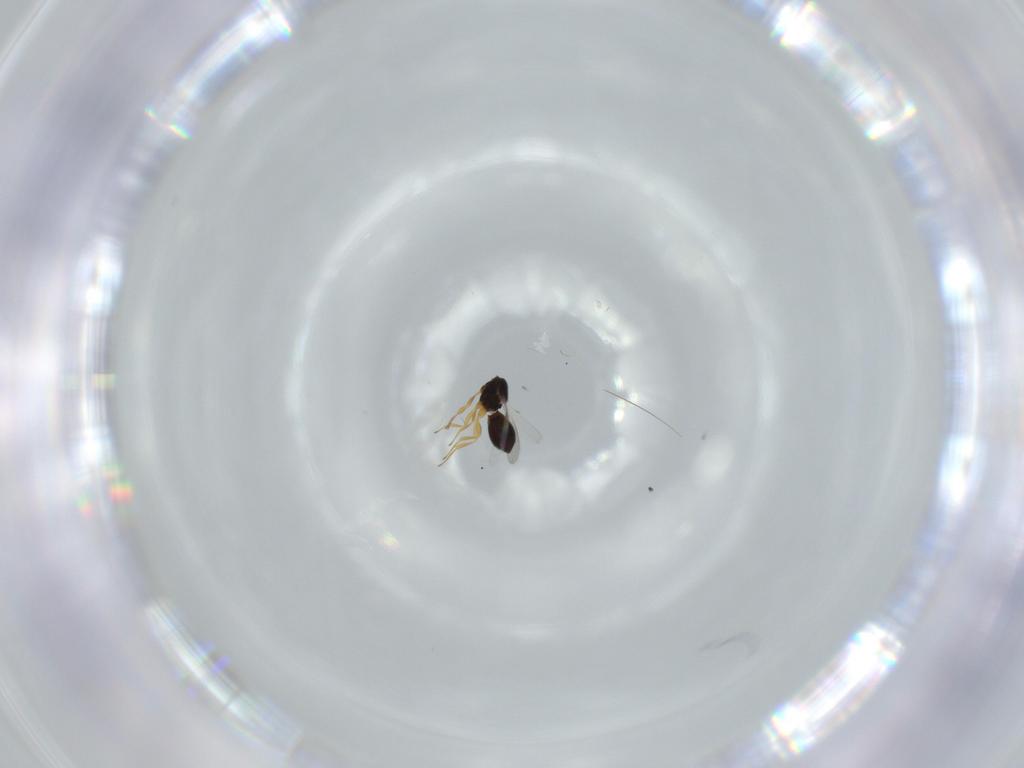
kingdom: Animalia
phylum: Arthropoda
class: Insecta
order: Hymenoptera
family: Scelionidae
